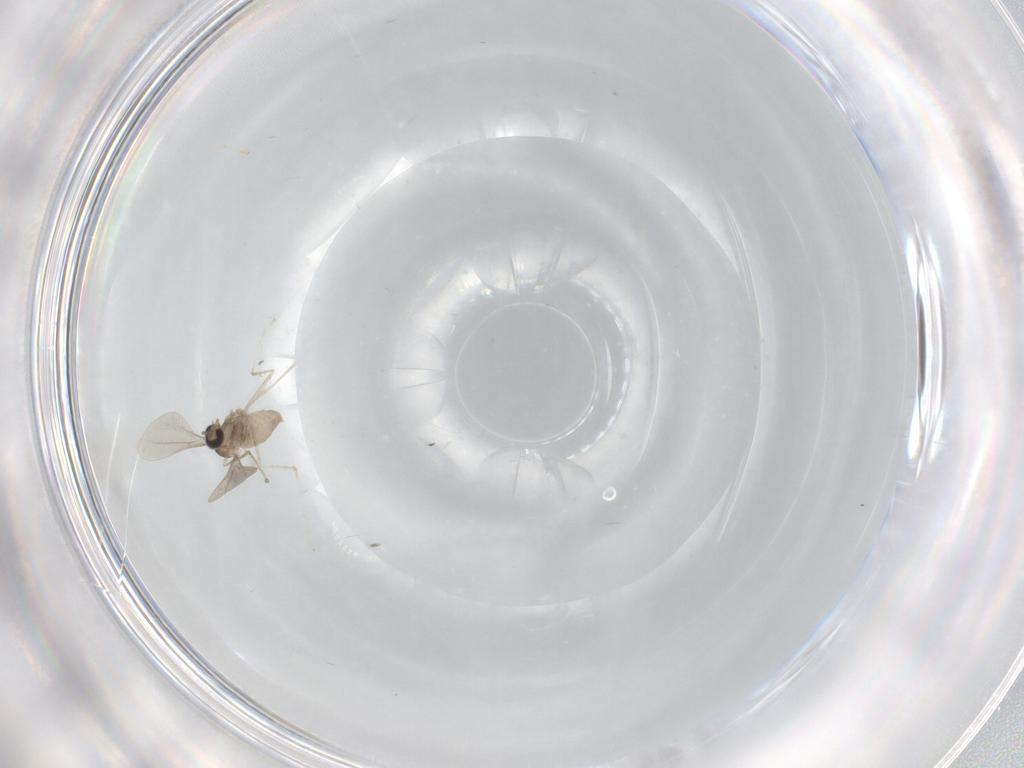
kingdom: Animalia
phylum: Arthropoda
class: Insecta
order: Diptera
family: Cecidomyiidae
